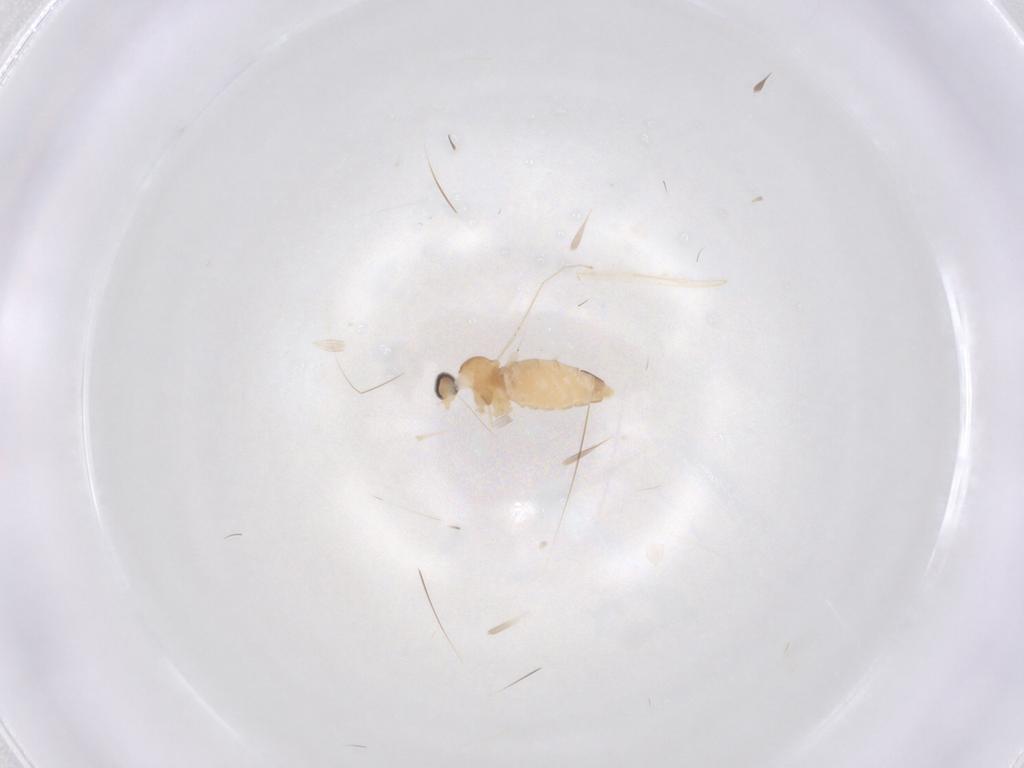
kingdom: Animalia
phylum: Arthropoda
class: Insecta
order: Diptera
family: Cecidomyiidae
